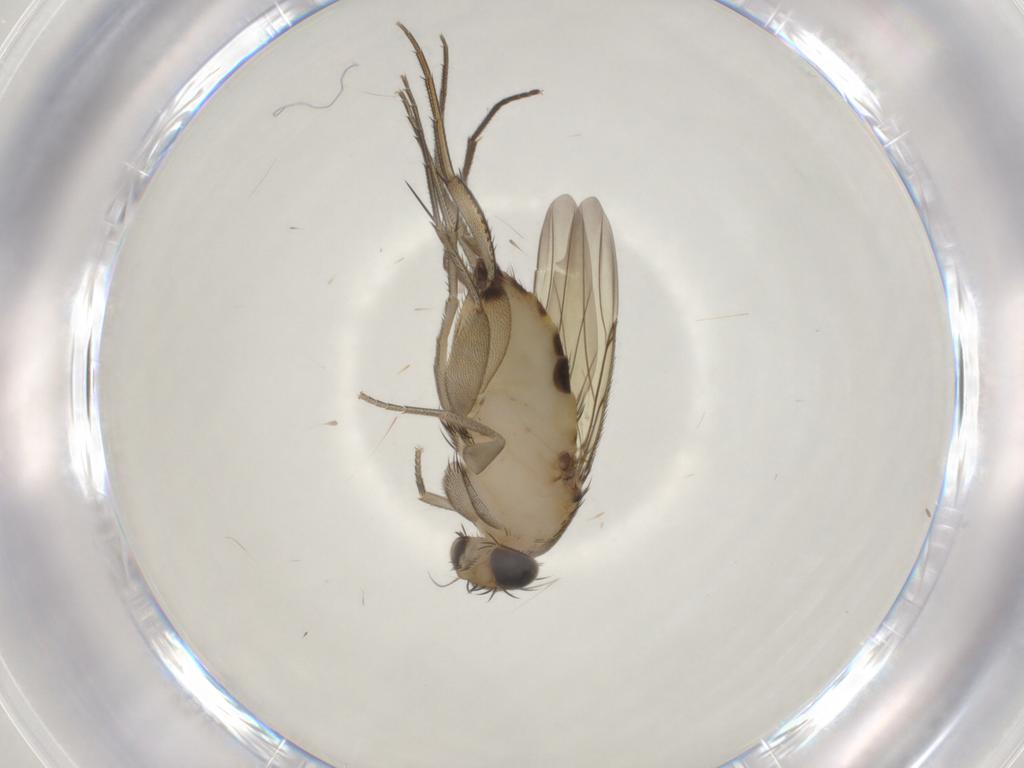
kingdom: Animalia
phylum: Arthropoda
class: Insecta
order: Diptera
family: Phoridae
